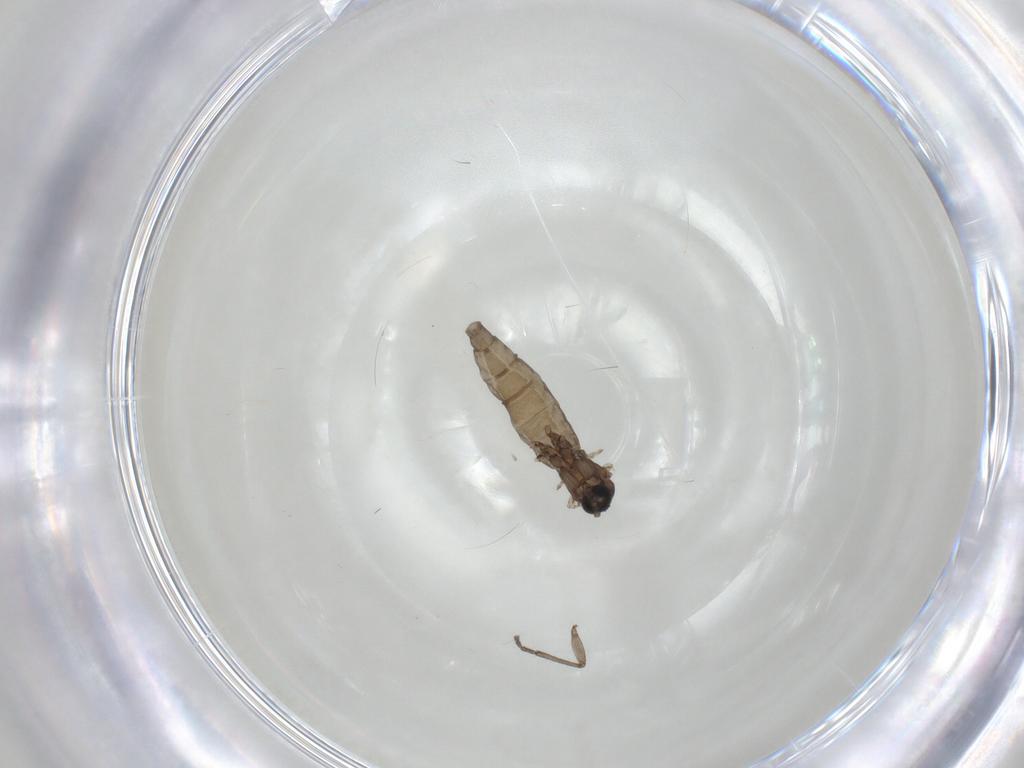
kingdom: Animalia
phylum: Arthropoda
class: Insecta
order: Diptera
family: Sciaridae
